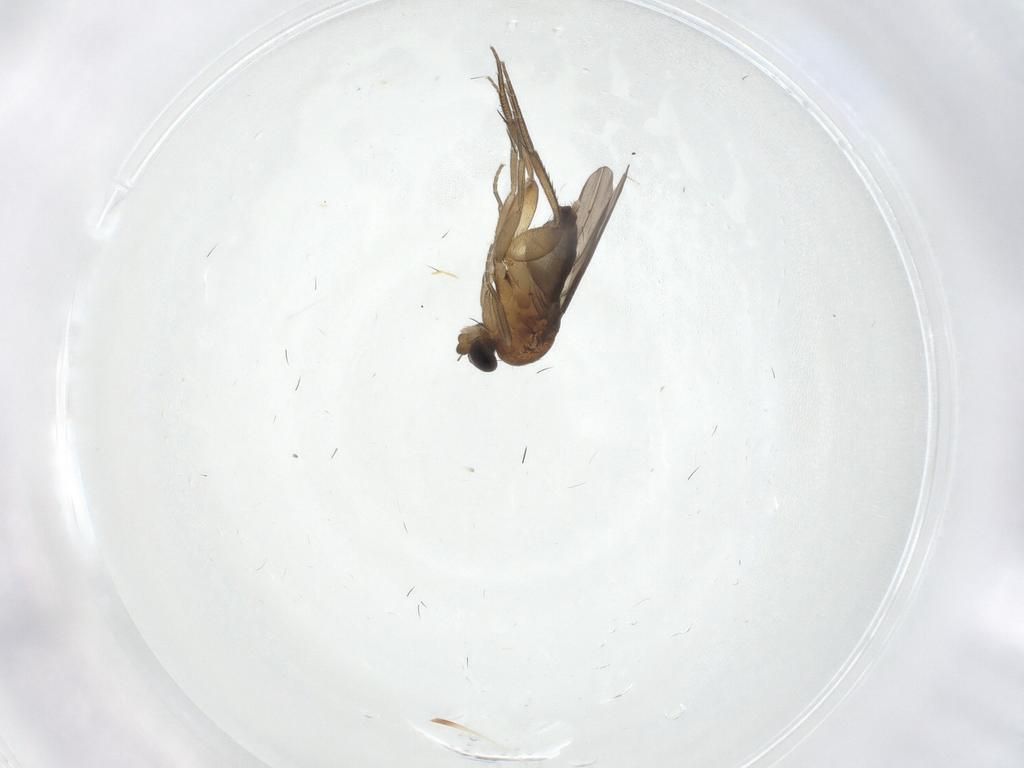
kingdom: Animalia
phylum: Arthropoda
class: Insecta
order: Diptera
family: Phoridae
